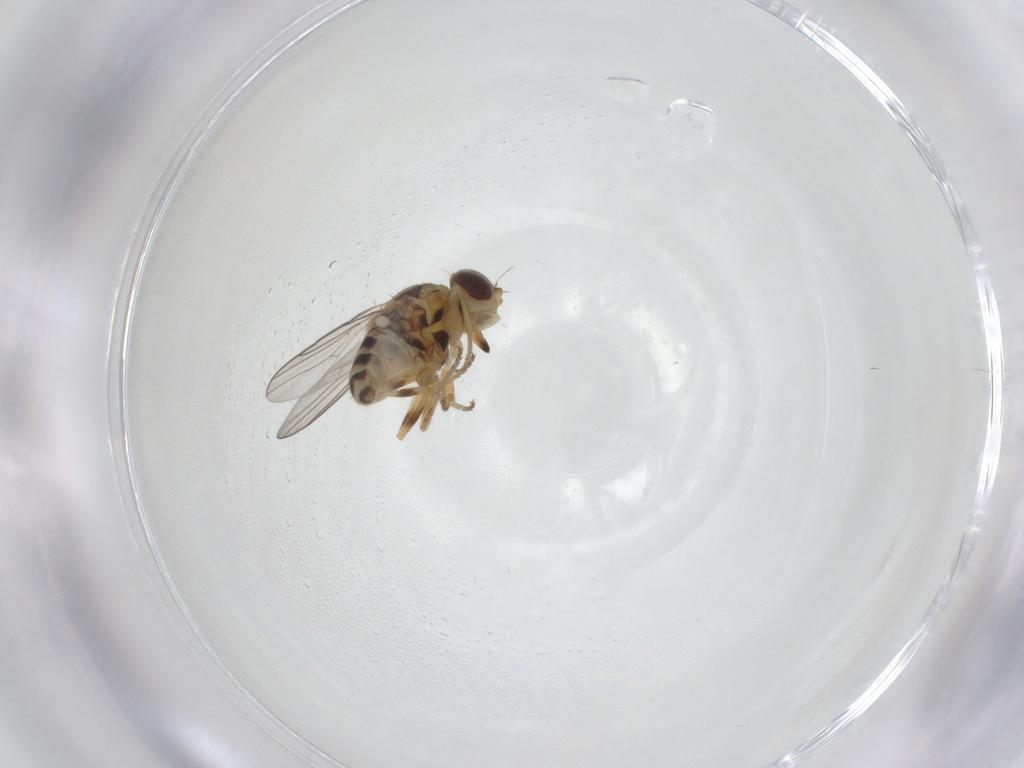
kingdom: Animalia
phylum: Arthropoda
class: Insecta
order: Diptera
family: Chloropidae
